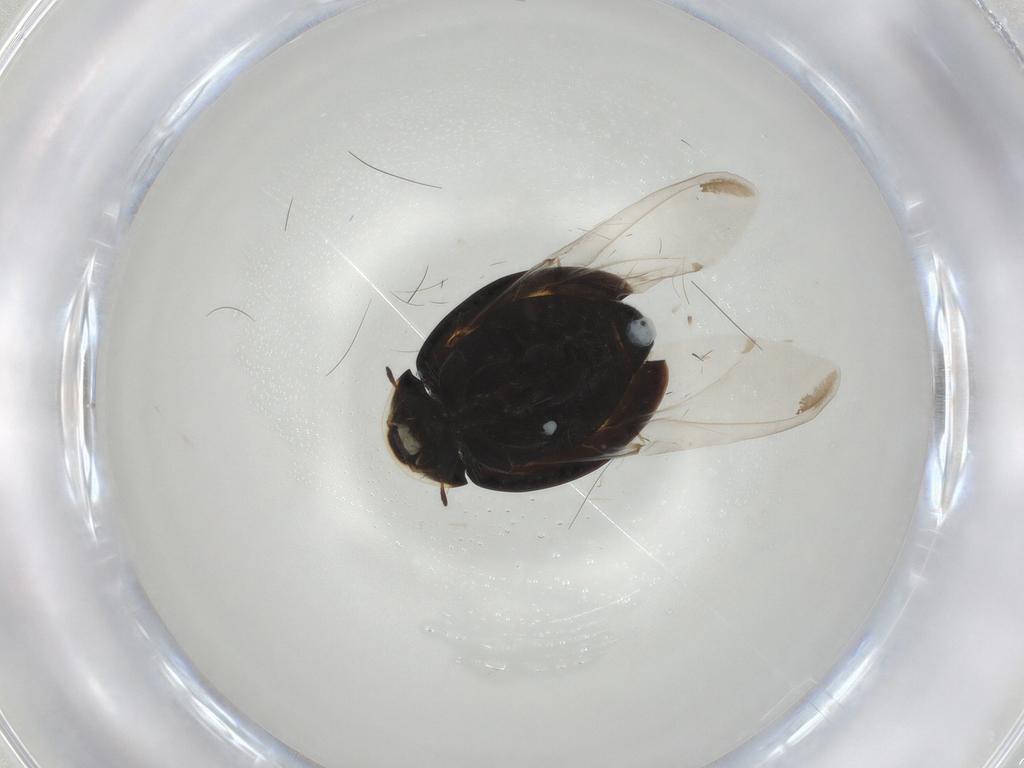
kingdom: Animalia
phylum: Arthropoda
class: Insecta
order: Coleoptera
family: Coccinellidae
